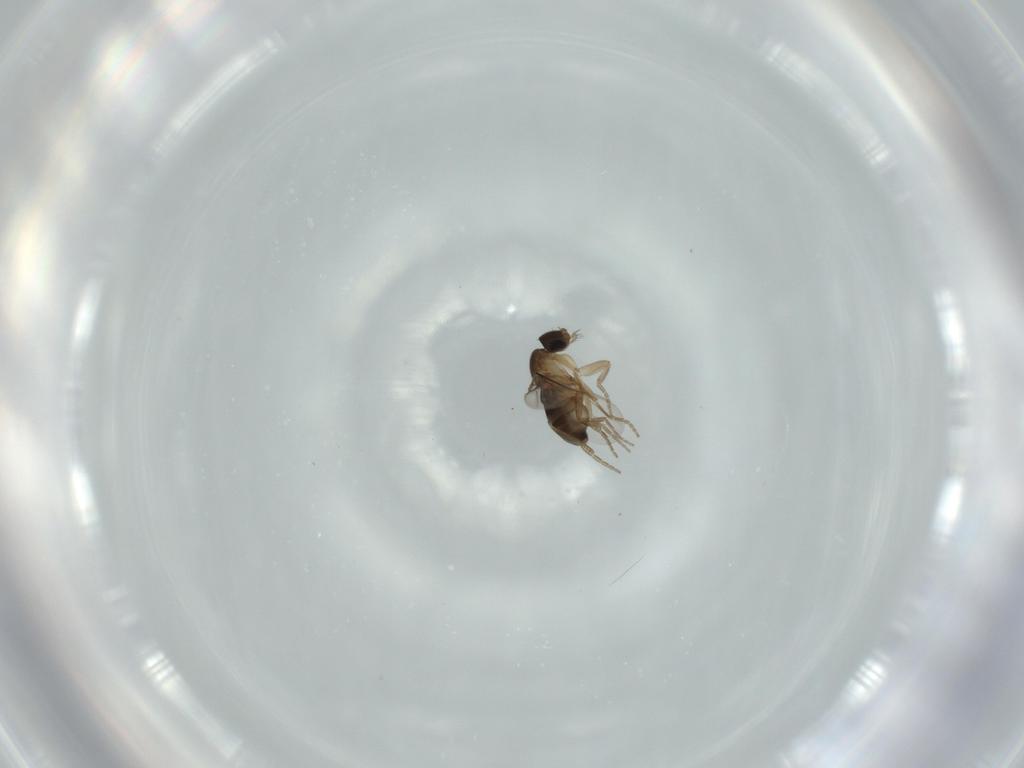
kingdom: Animalia
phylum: Arthropoda
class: Insecta
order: Diptera
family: Phoridae
